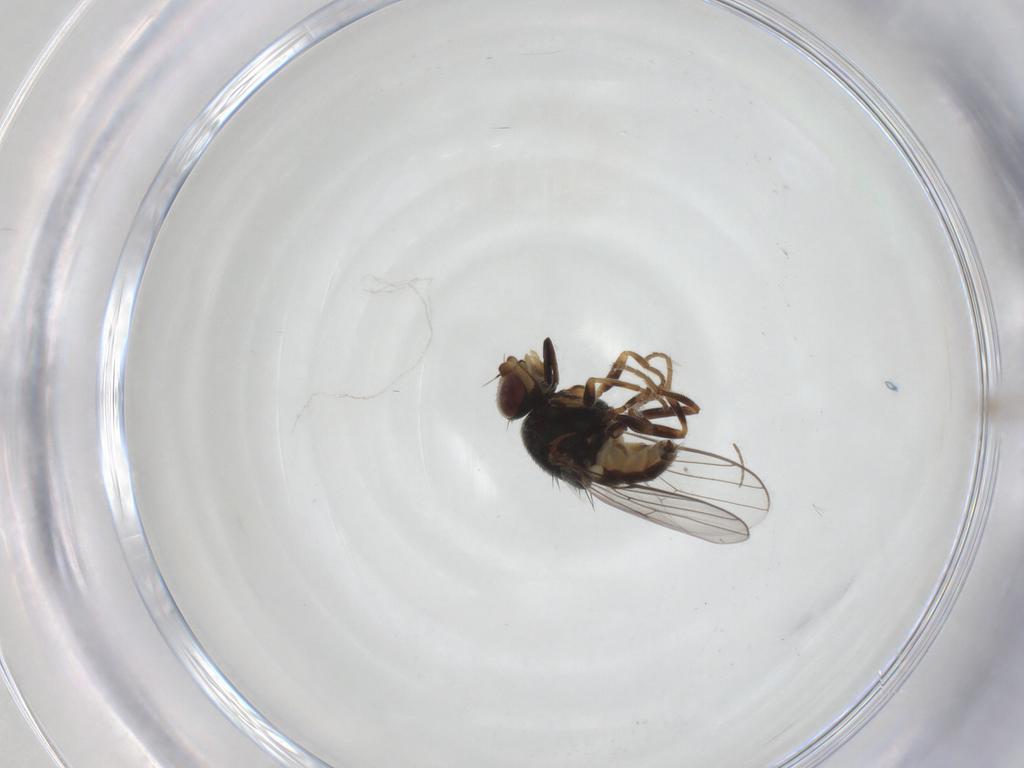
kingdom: Animalia
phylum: Arthropoda
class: Insecta
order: Diptera
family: Chloropidae
